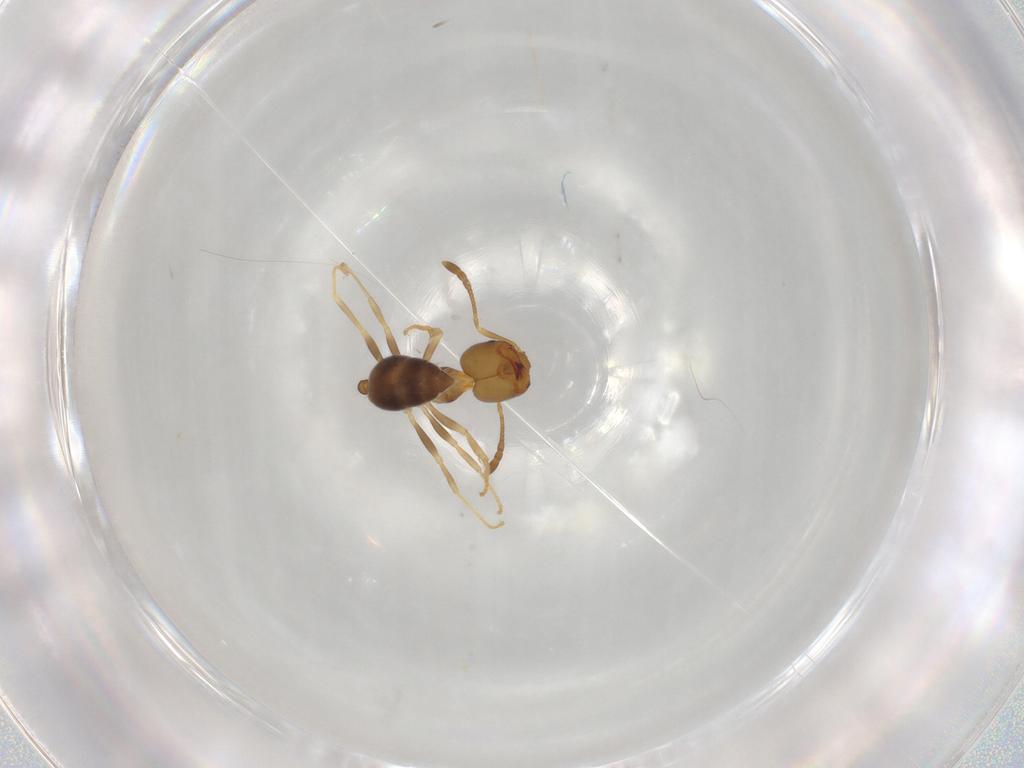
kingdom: Animalia
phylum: Arthropoda
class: Insecta
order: Hymenoptera
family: Formicidae
